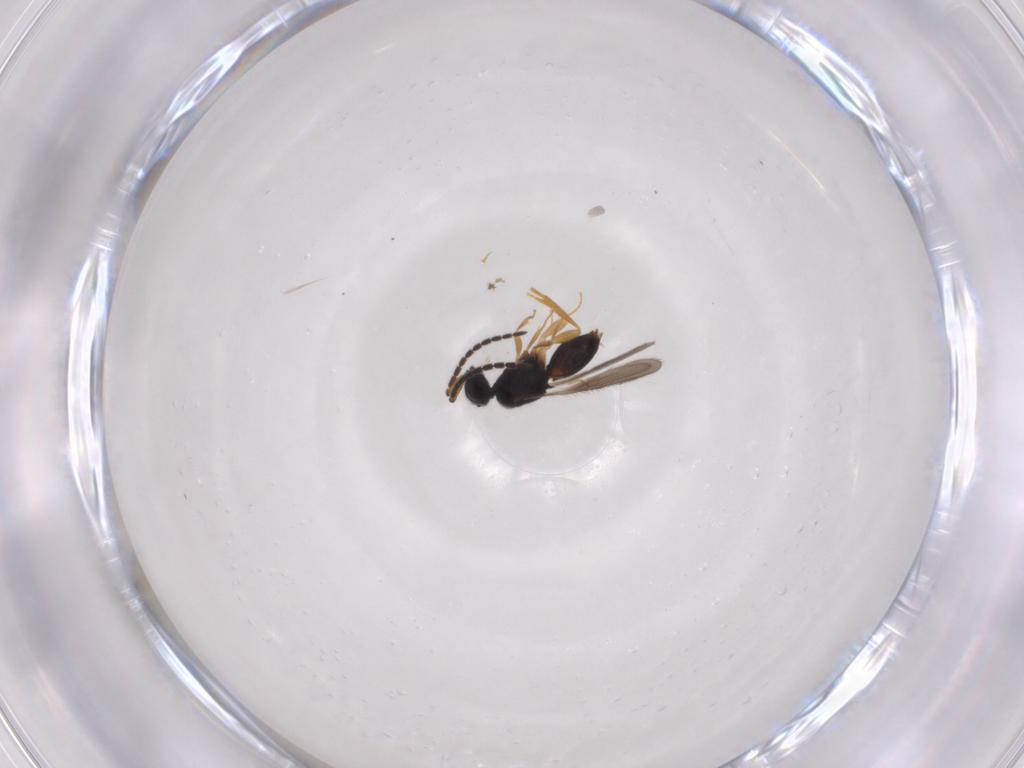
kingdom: Animalia
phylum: Arthropoda
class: Insecta
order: Hymenoptera
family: Scelionidae
